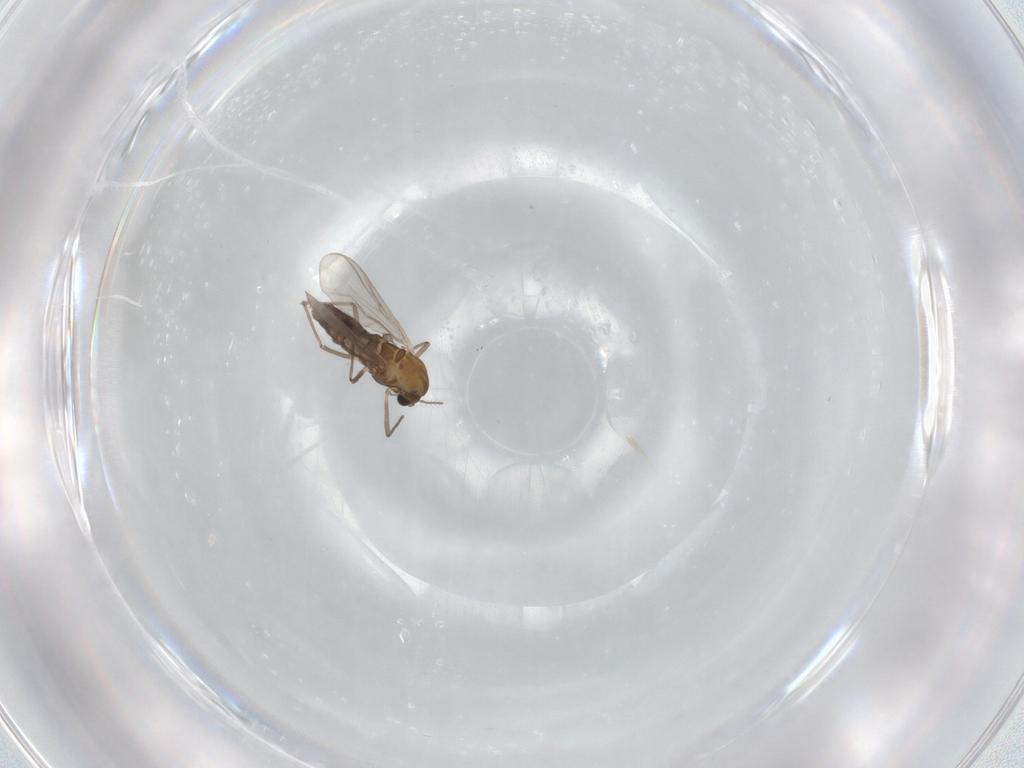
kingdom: Animalia
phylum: Arthropoda
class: Insecta
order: Diptera
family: Chironomidae
